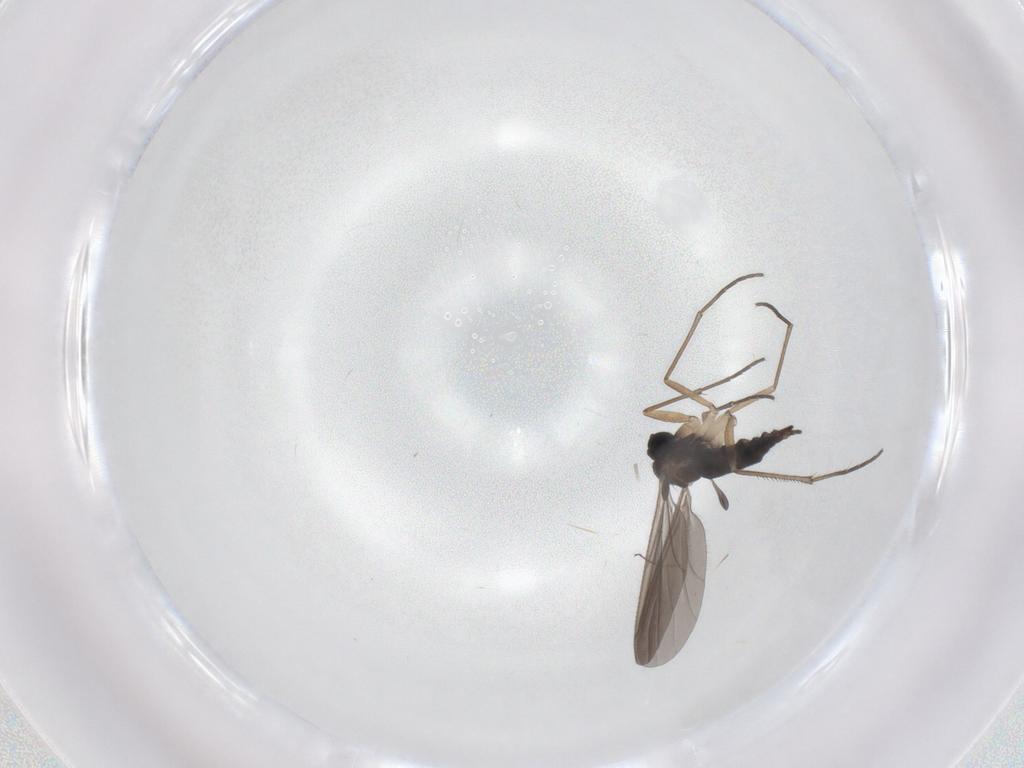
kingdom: Animalia
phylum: Arthropoda
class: Insecta
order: Diptera
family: Sciaridae
